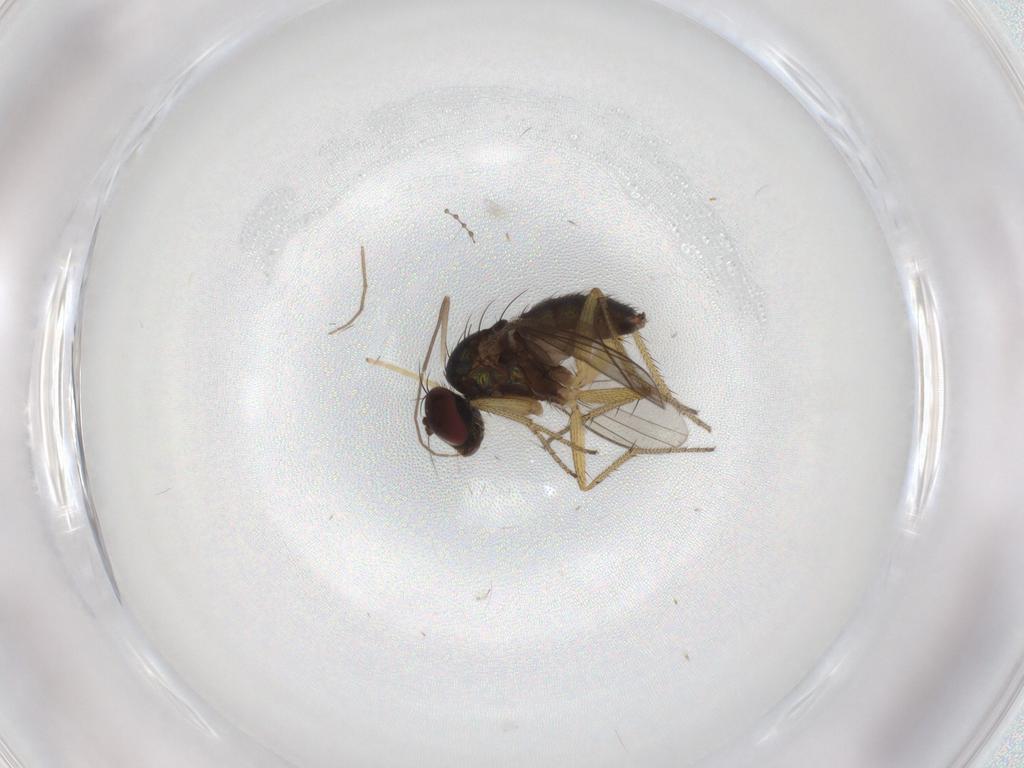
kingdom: Animalia
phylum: Arthropoda
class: Insecta
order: Diptera
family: Chironomidae
